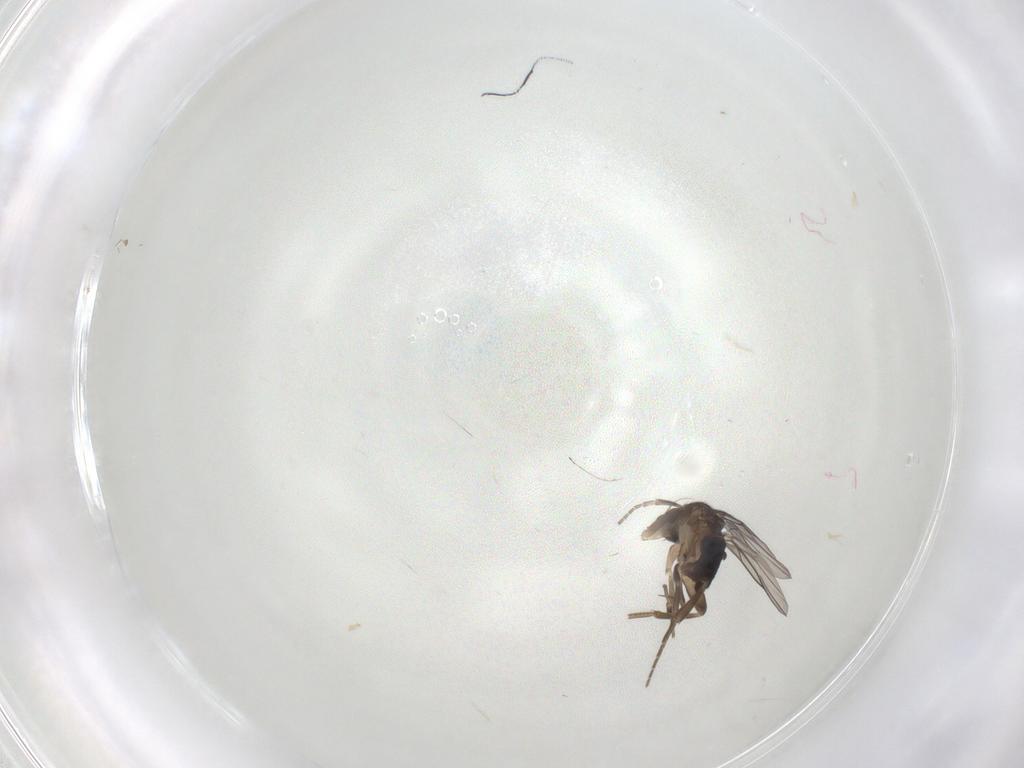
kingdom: Animalia
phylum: Arthropoda
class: Insecta
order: Diptera
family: Phoridae
